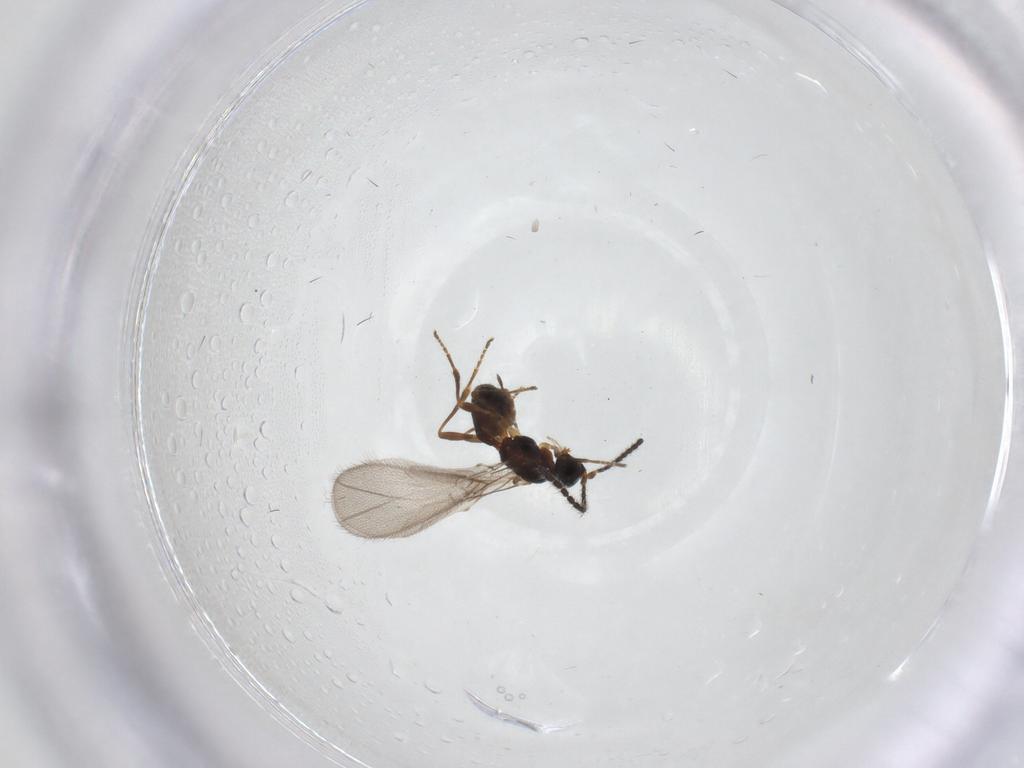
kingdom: Animalia
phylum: Arthropoda
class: Insecta
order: Hymenoptera
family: Braconidae
